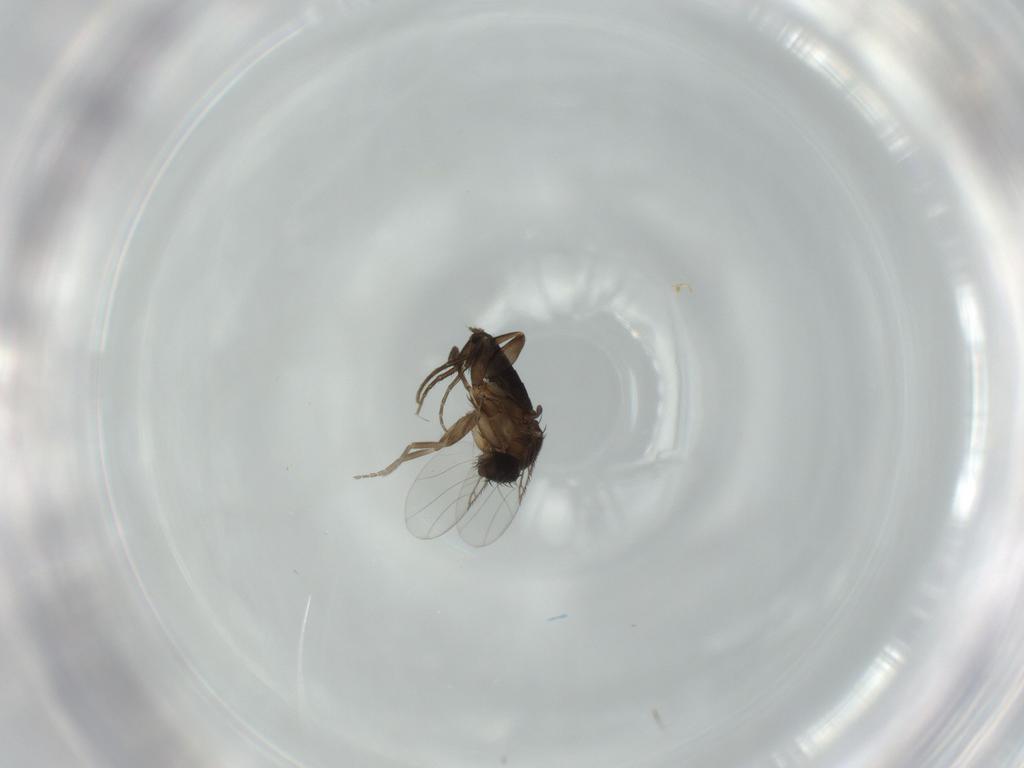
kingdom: Animalia
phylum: Arthropoda
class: Insecta
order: Diptera
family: Phoridae
